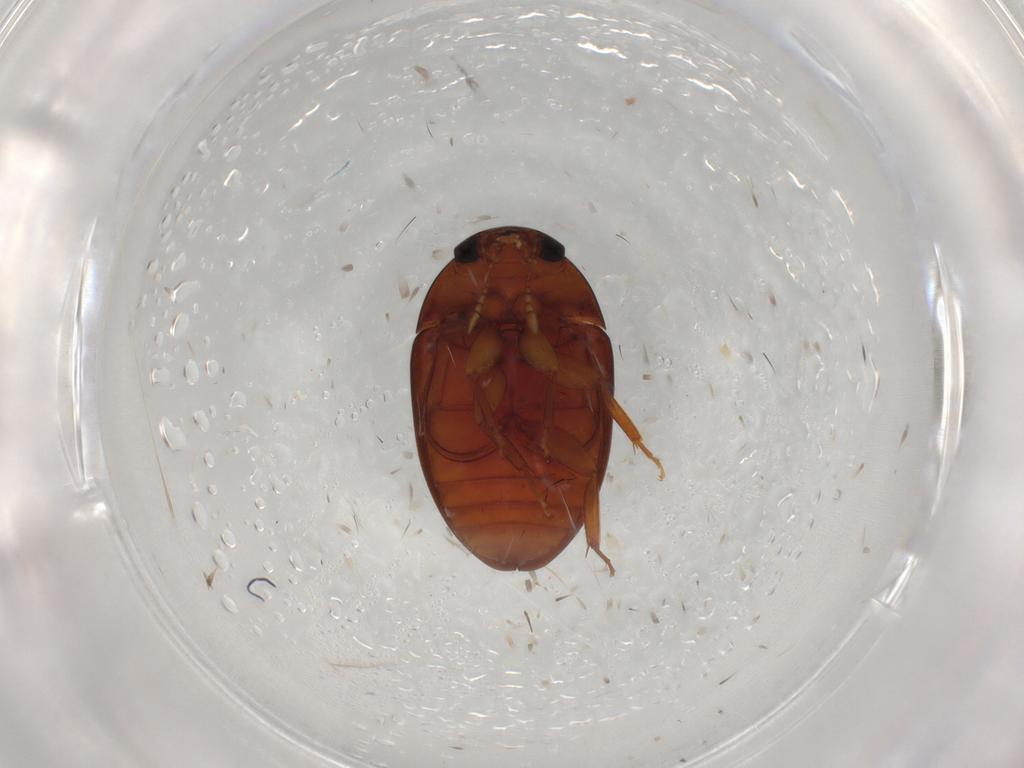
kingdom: Animalia
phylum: Arthropoda
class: Insecta
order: Coleoptera
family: Phalacridae
